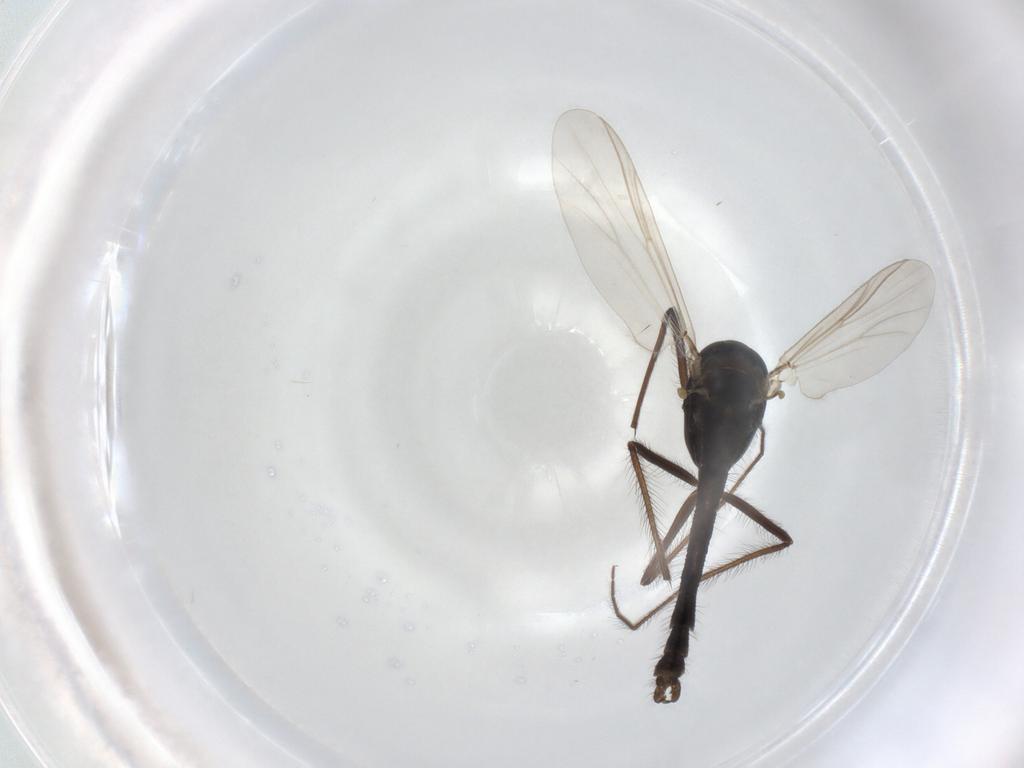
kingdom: Animalia
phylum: Arthropoda
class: Insecta
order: Diptera
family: Chironomidae
